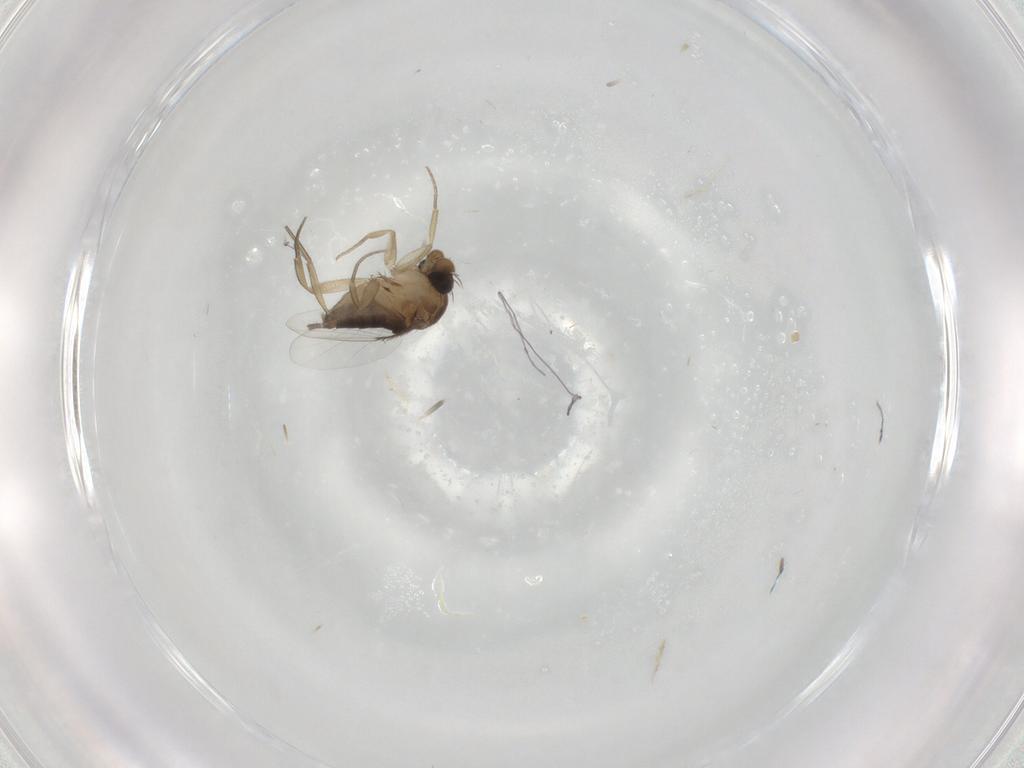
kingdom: Animalia
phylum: Arthropoda
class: Insecta
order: Diptera
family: Phoridae
